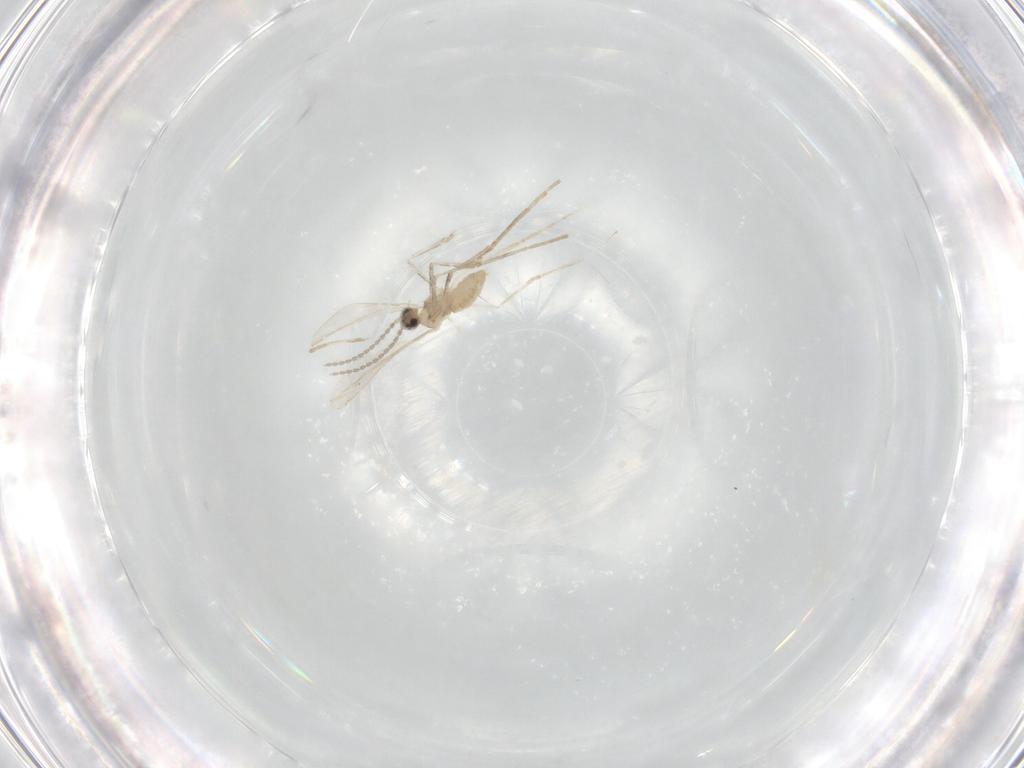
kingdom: Animalia
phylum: Arthropoda
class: Insecta
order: Diptera
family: Cecidomyiidae
